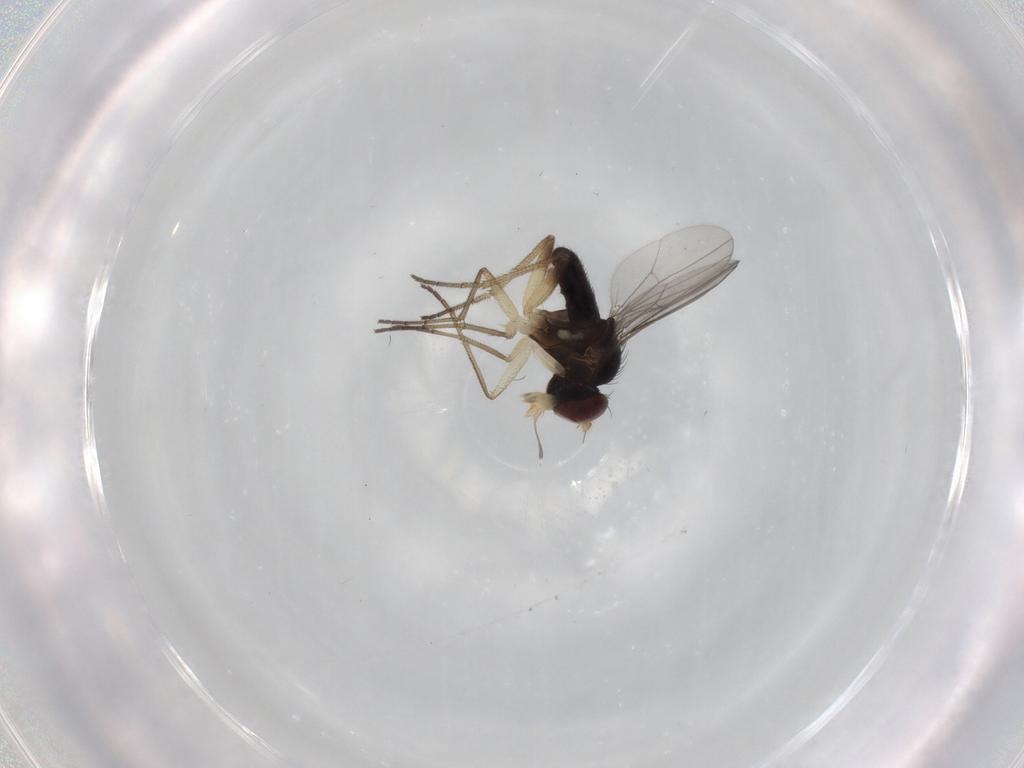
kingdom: Animalia
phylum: Arthropoda
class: Insecta
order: Diptera
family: Dolichopodidae
